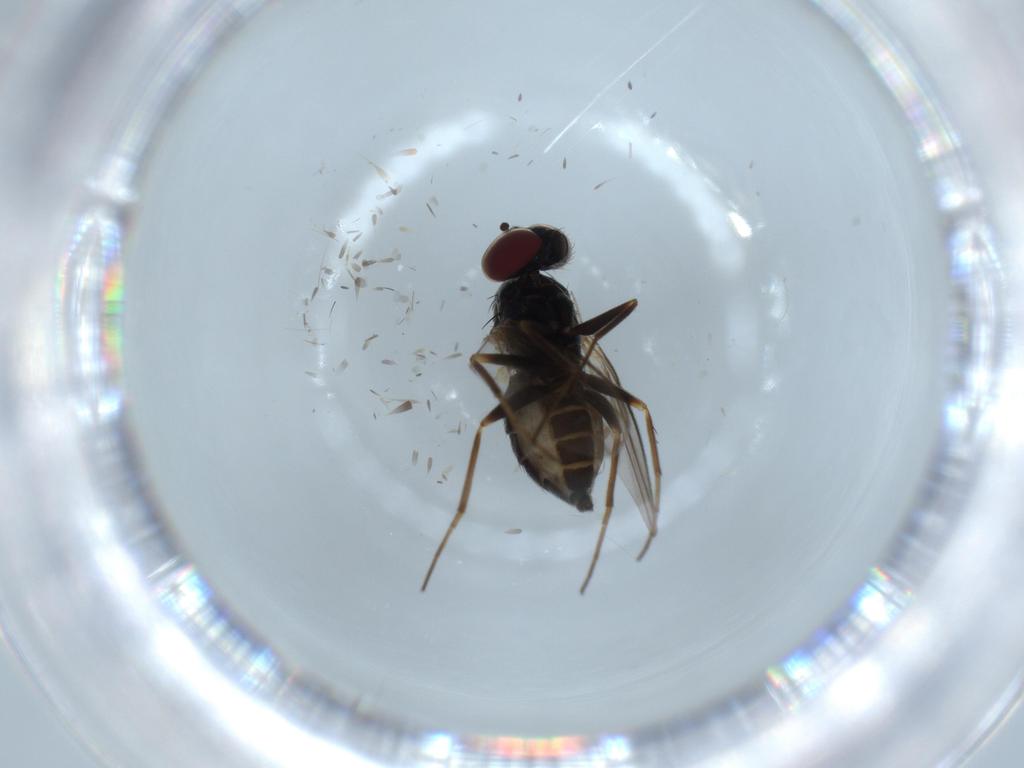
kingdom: Animalia
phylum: Arthropoda
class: Insecta
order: Diptera
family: Dolichopodidae
